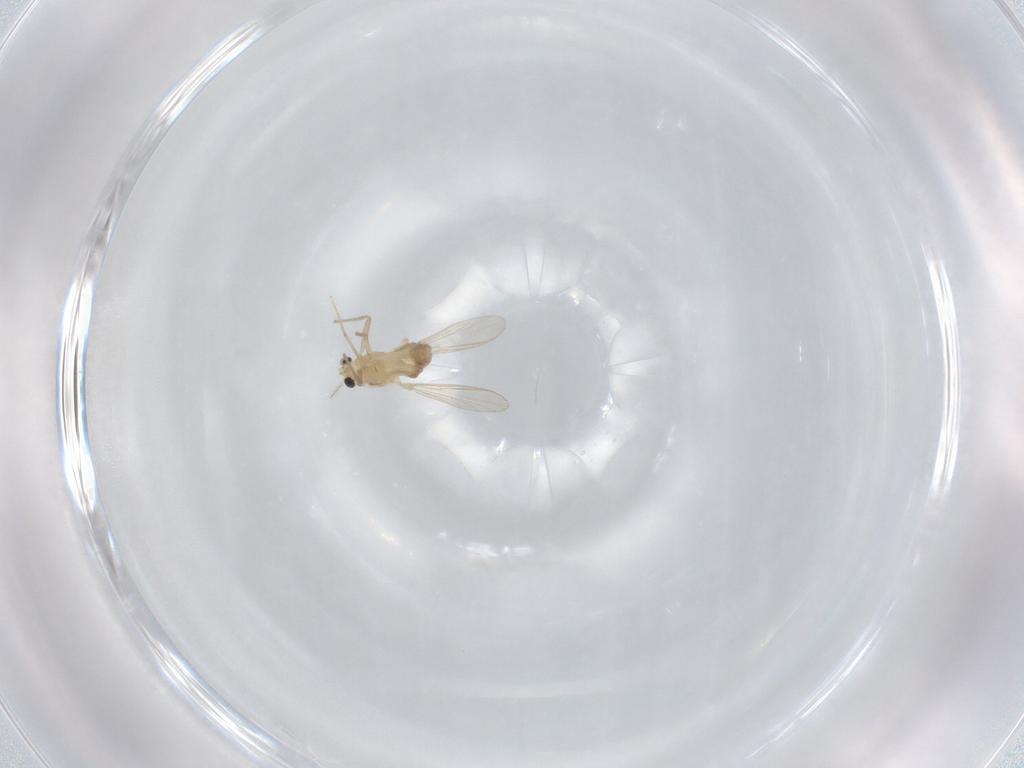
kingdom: Animalia
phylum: Arthropoda
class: Insecta
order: Diptera
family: Chironomidae
